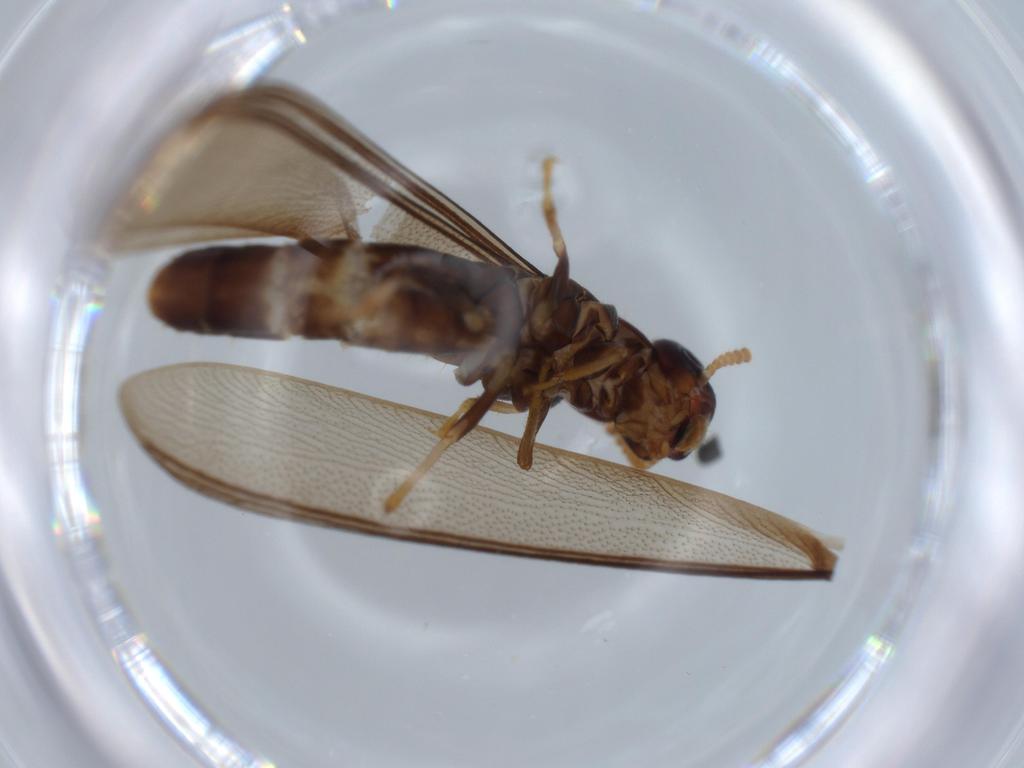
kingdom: Animalia
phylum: Arthropoda
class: Insecta
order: Blattodea
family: Kalotermitidae
